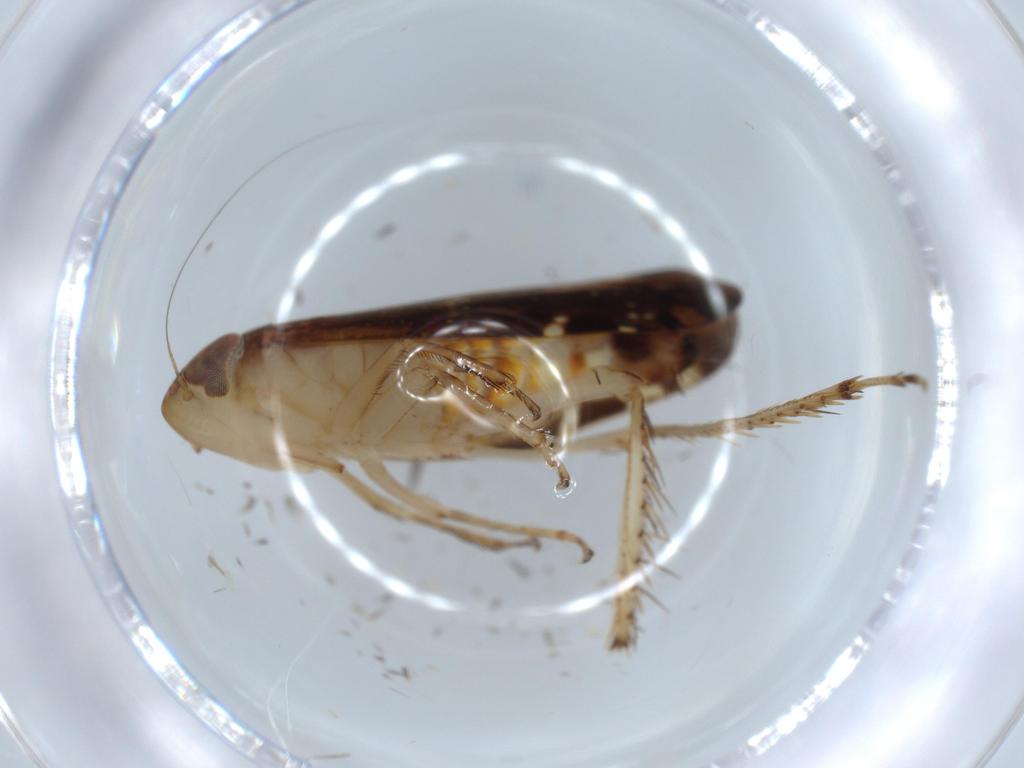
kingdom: Animalia
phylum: Arthropoda
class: Insecta
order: Hemiptera
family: Cicadellidae
